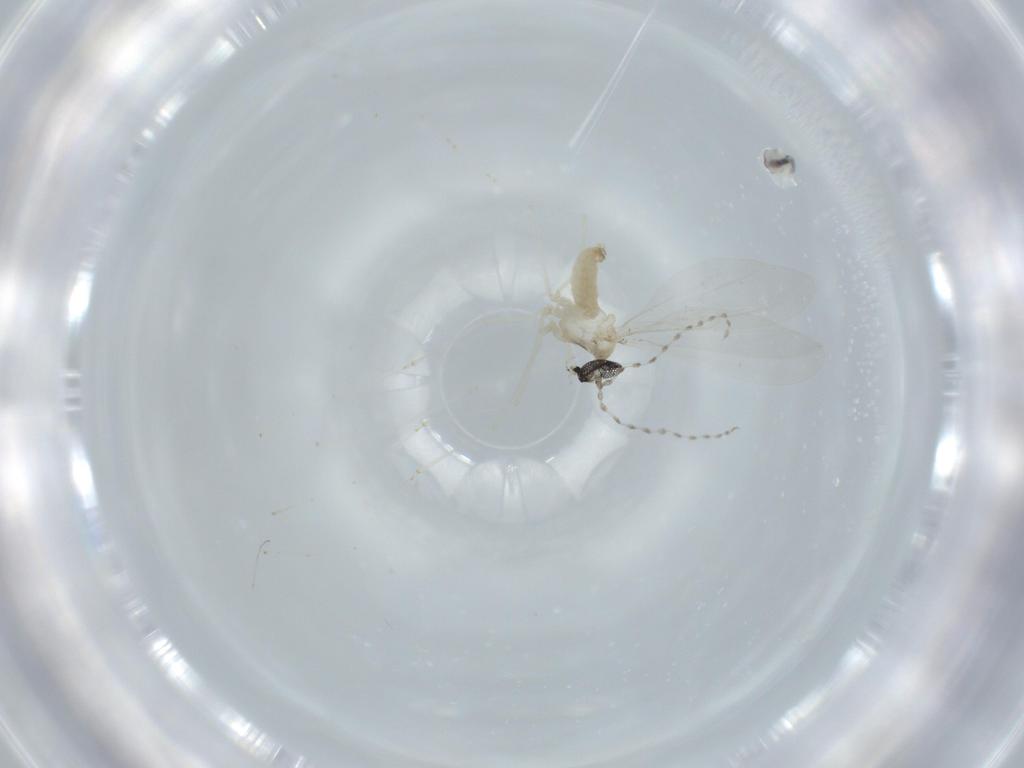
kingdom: Animalia
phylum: Arthropoda
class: Insecta
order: Diptera
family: Cecidomyiidae
